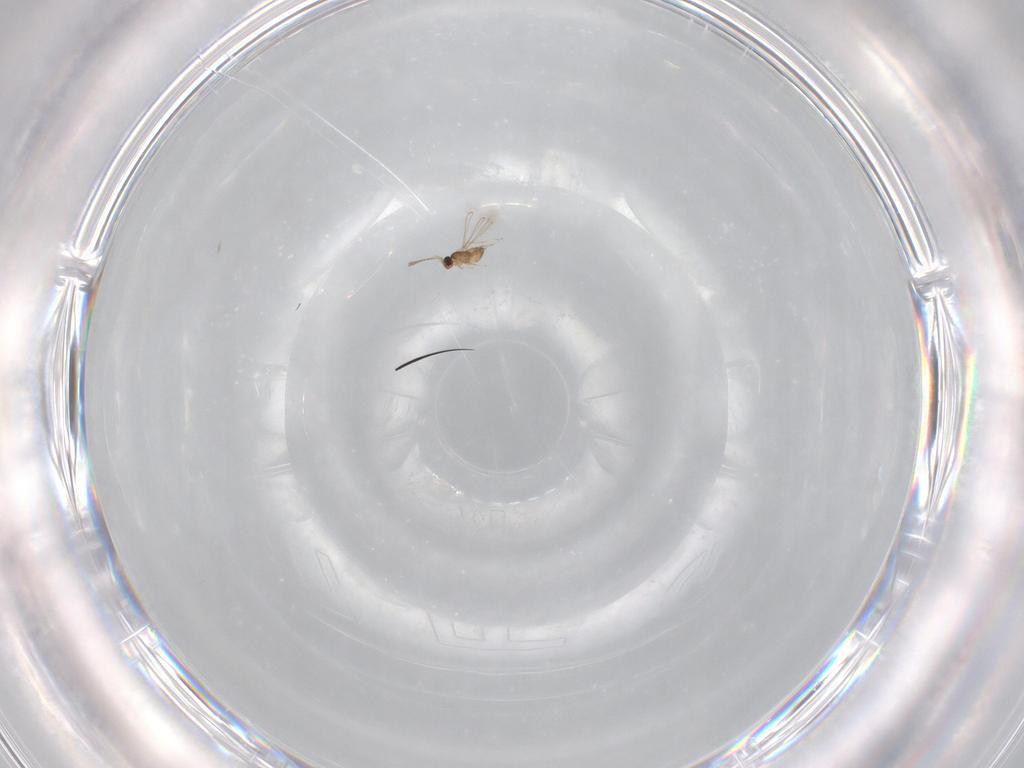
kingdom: Animalia
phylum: Arthropoda
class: Insecta
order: Hymenoptera
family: Mymaridae
